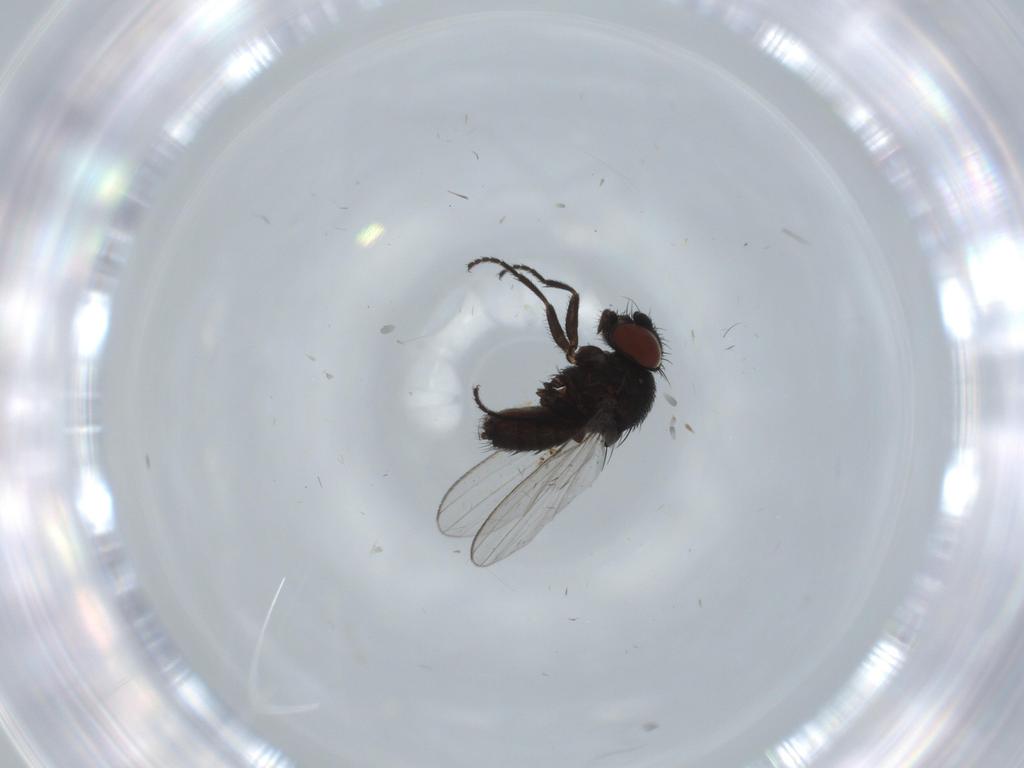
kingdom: Animalia
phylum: Arthropoda
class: Insecta
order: Diptera
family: Milichiidae
